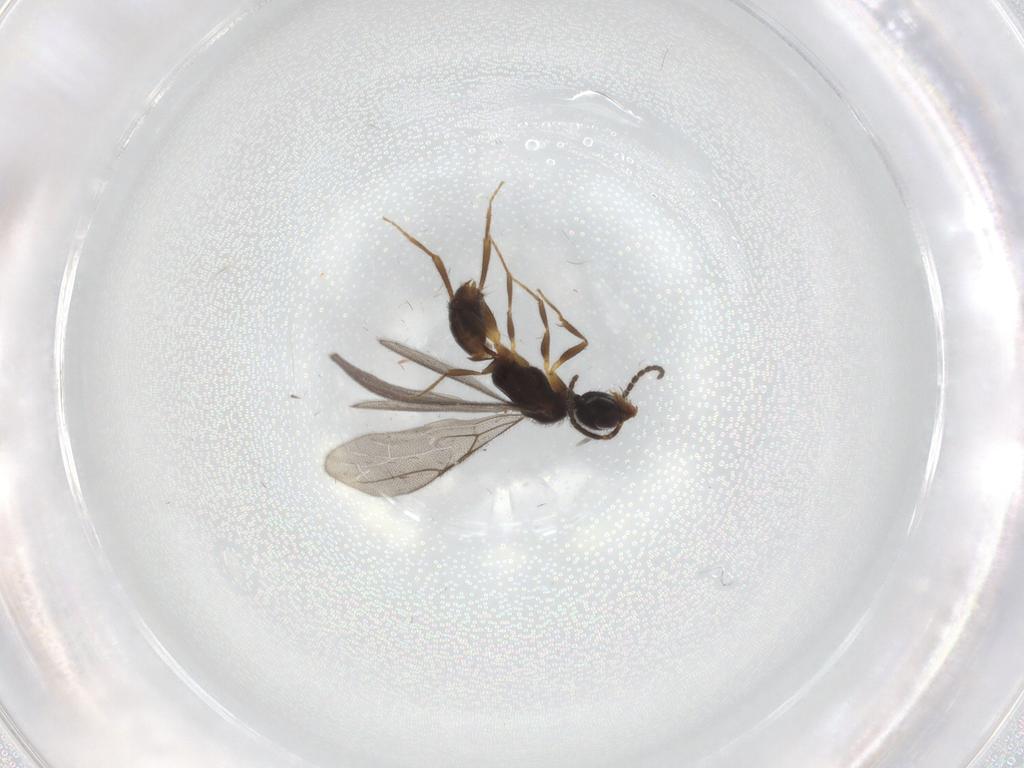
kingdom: Animalia
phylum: Arthropoda
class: Insecta
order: Hymenoptera
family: Bethylidae
